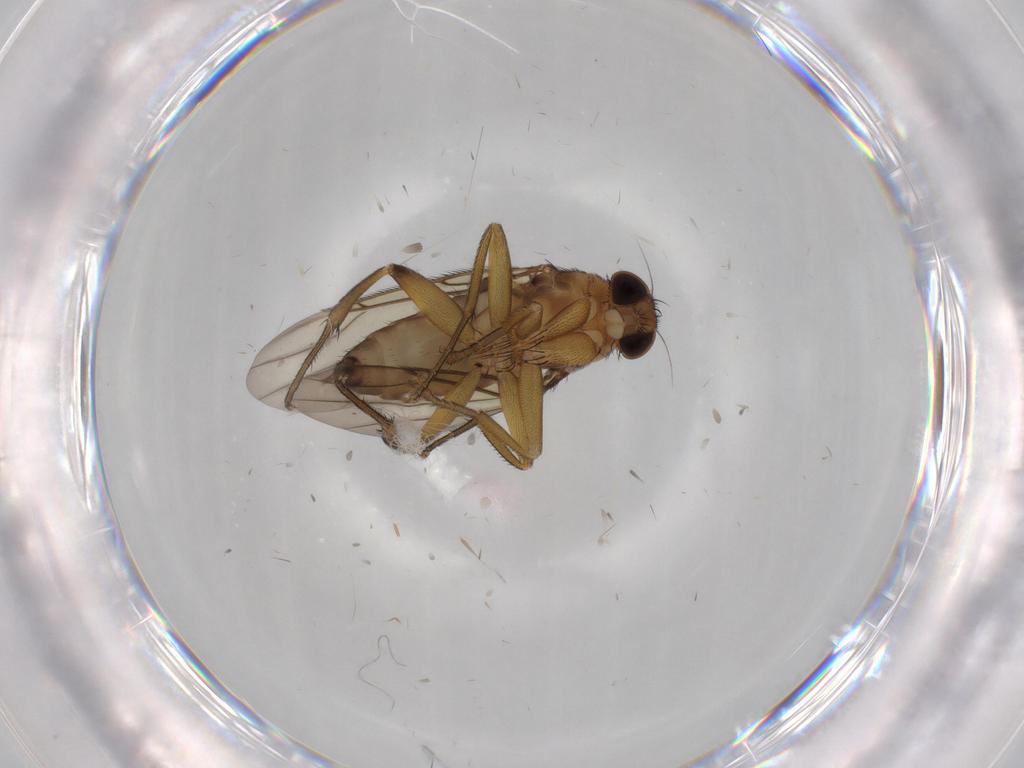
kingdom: Animalia
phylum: Arthropoda
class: Insecta
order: Diptera
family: Phoridae
